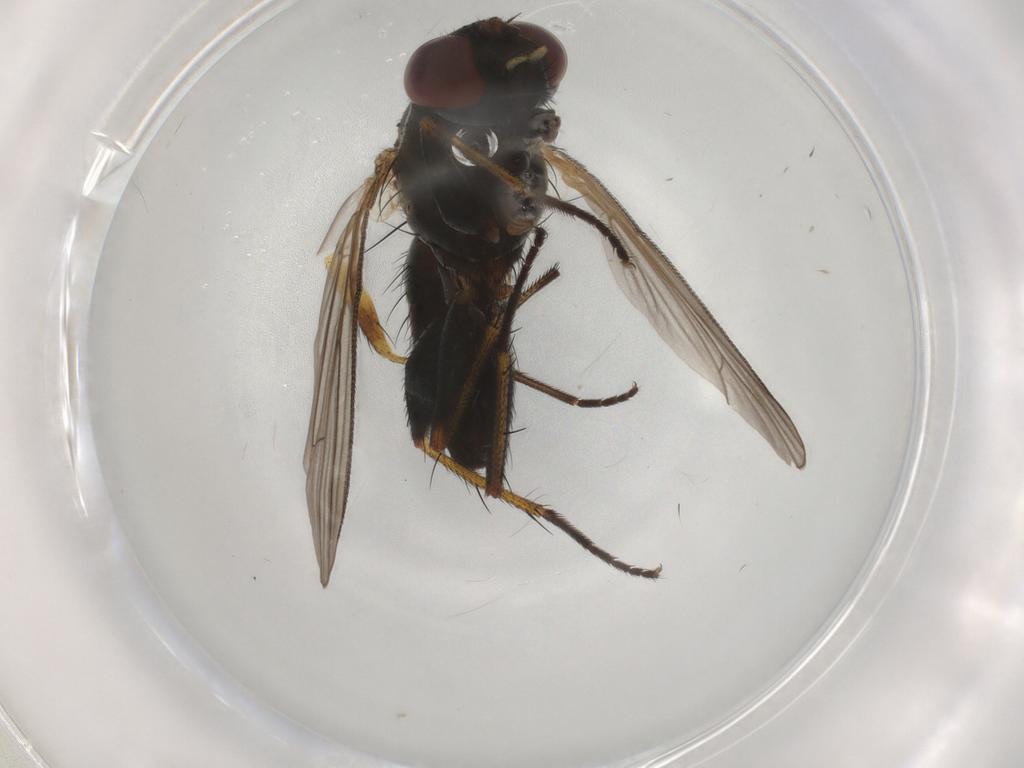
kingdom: Animalia
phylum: Arthropoda
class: Insecta
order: Diptera
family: Muscidae
